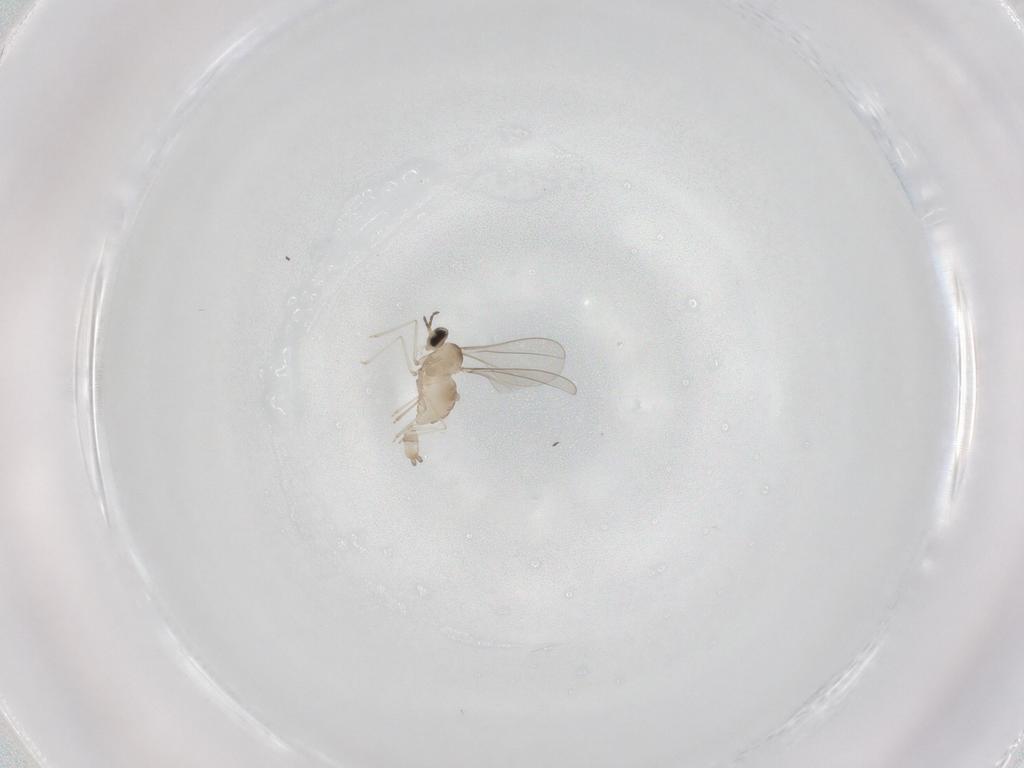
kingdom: Animalia
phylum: Arthropoda
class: Insecta
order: Diptera
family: Sciaridae
